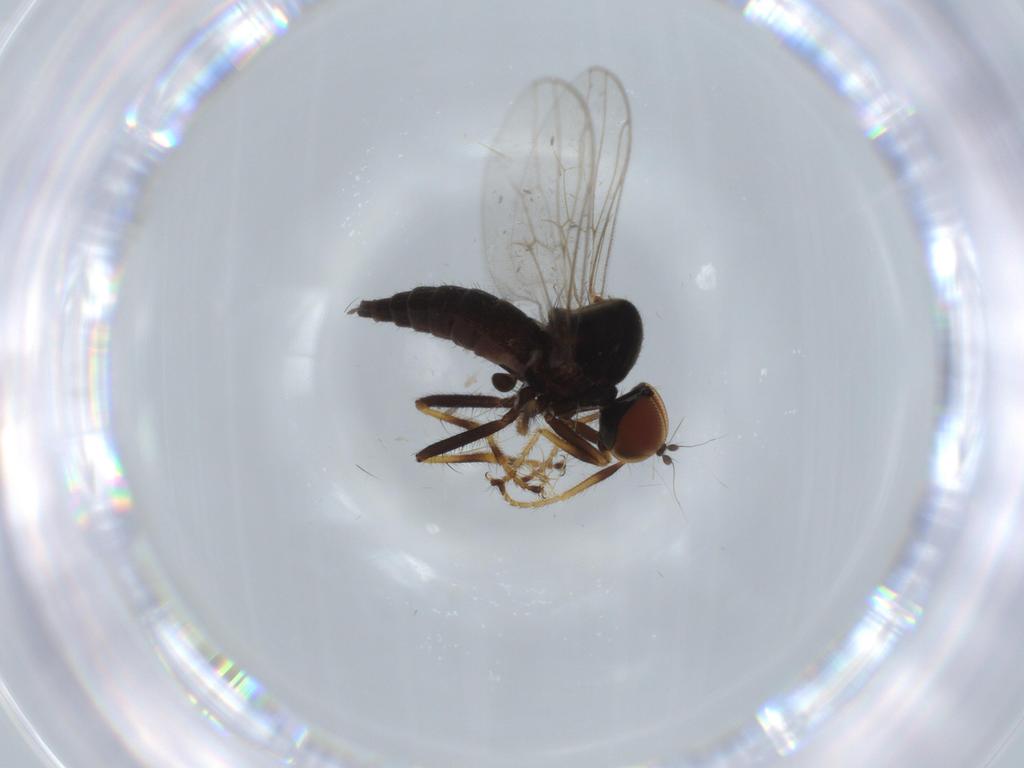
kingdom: Animalia
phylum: Arthropoda
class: Insecta
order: Diptera
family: Hybotidae
